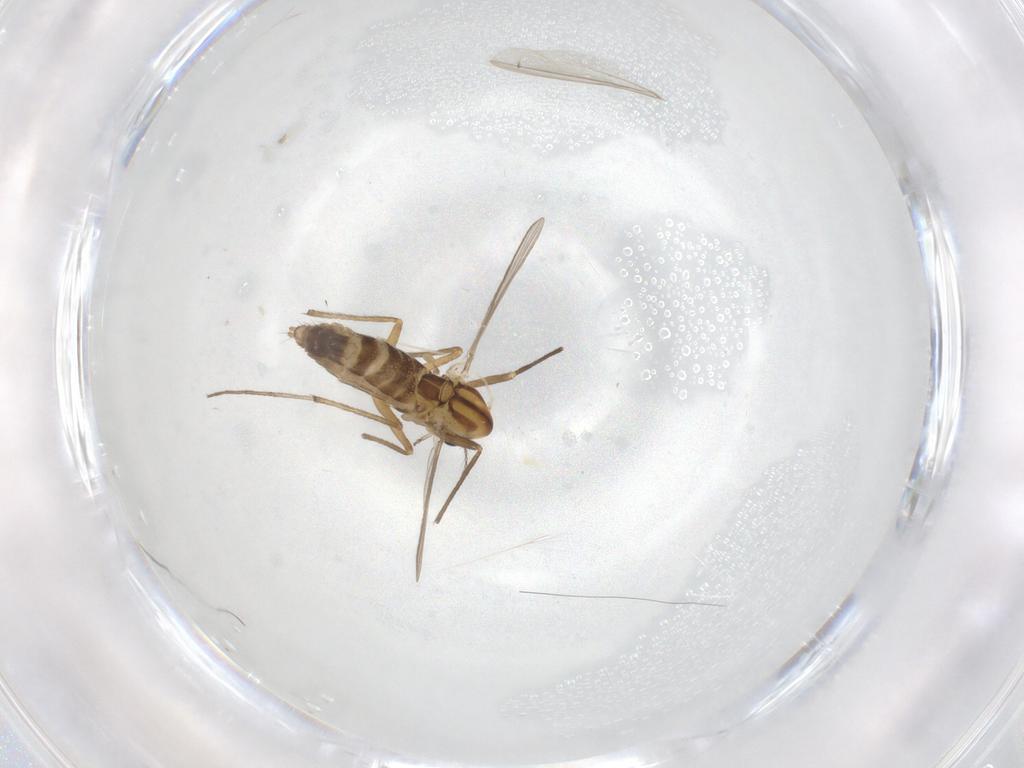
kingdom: Animalia
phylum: Arthropoda
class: Insecta
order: Diptera
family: Chironomidae
